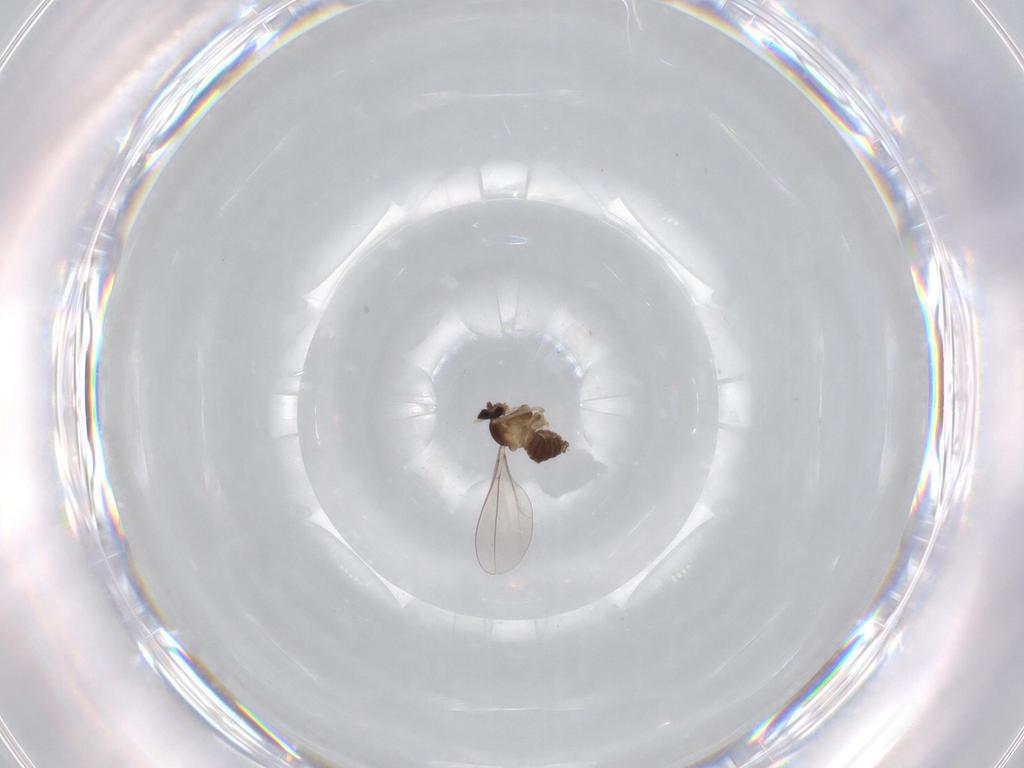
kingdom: Animalia
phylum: Arthropoda
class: Insecta
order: Diptera
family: Cecidomyiidae
